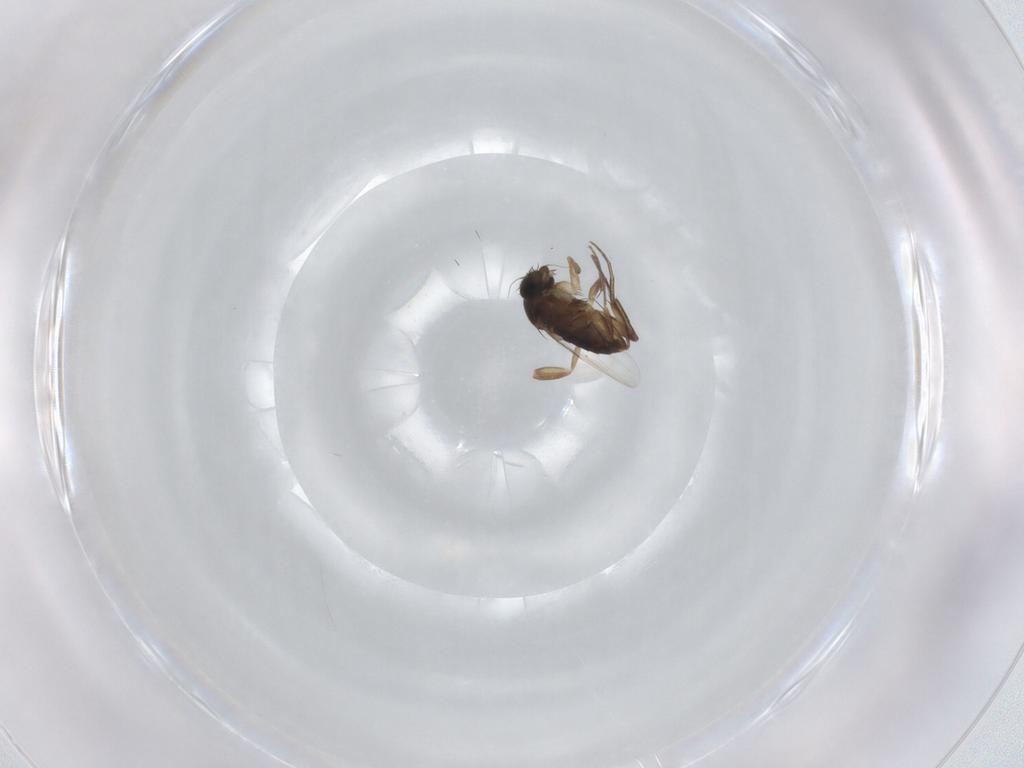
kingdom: Animalia
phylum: Arthropoda
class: Insecta
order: Diptera
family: Phoridae
